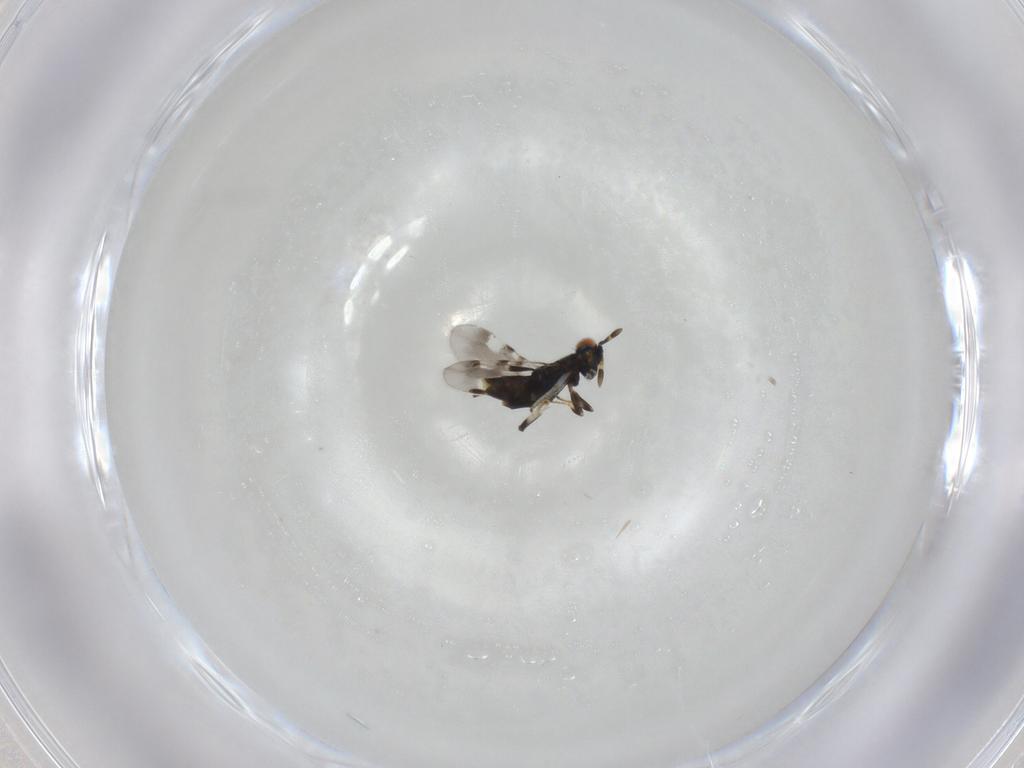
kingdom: Animalia
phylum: Arthropoda
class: Insecta
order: Hymenoptera
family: Encyrtidae
